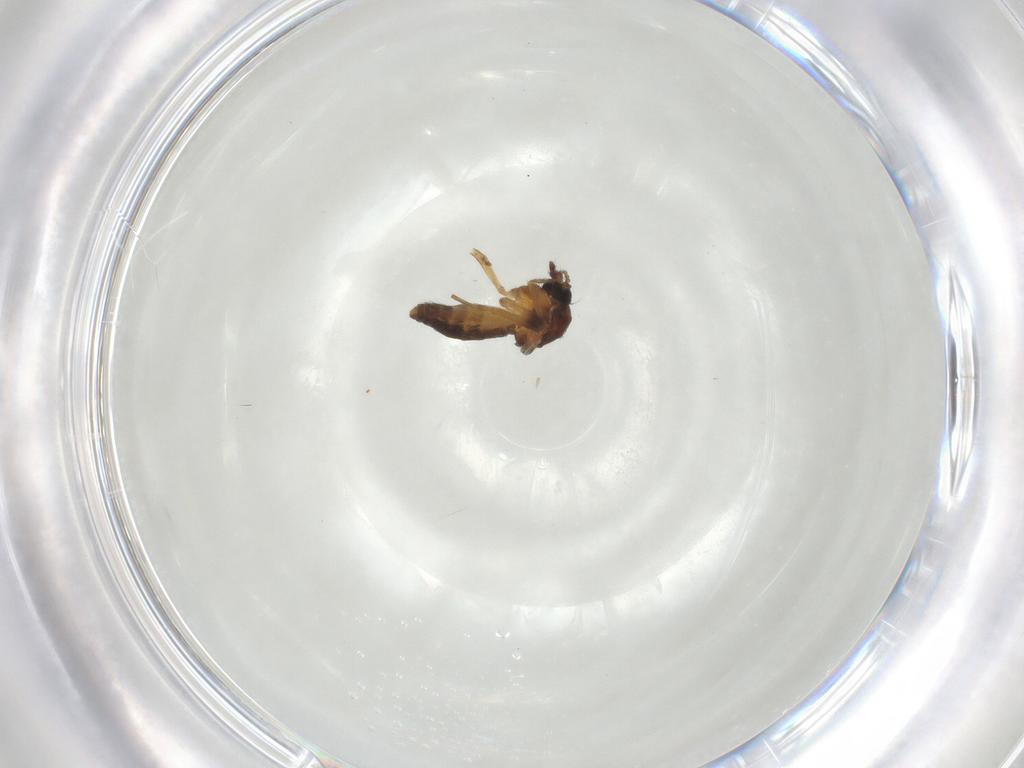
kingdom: Animalia
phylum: Arthropoda
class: Insecta
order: Diptera
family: Ceratopogonidae
